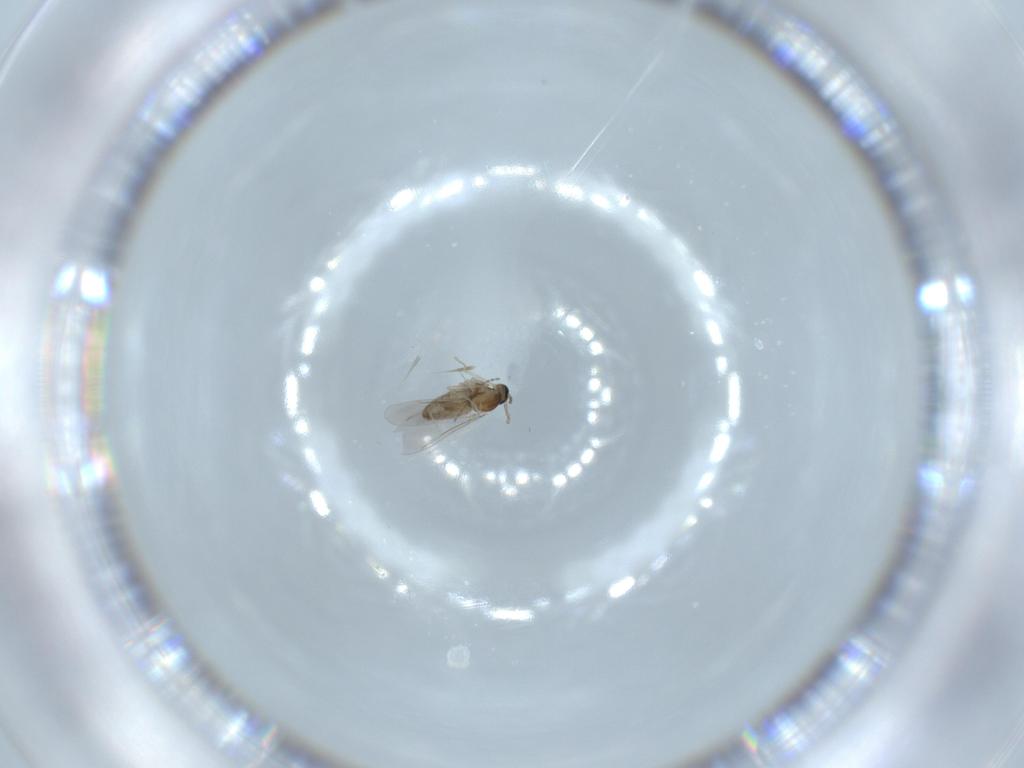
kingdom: Animalia
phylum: Arthropoda
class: Insecta
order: Diptera
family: Cecidomyiidae
